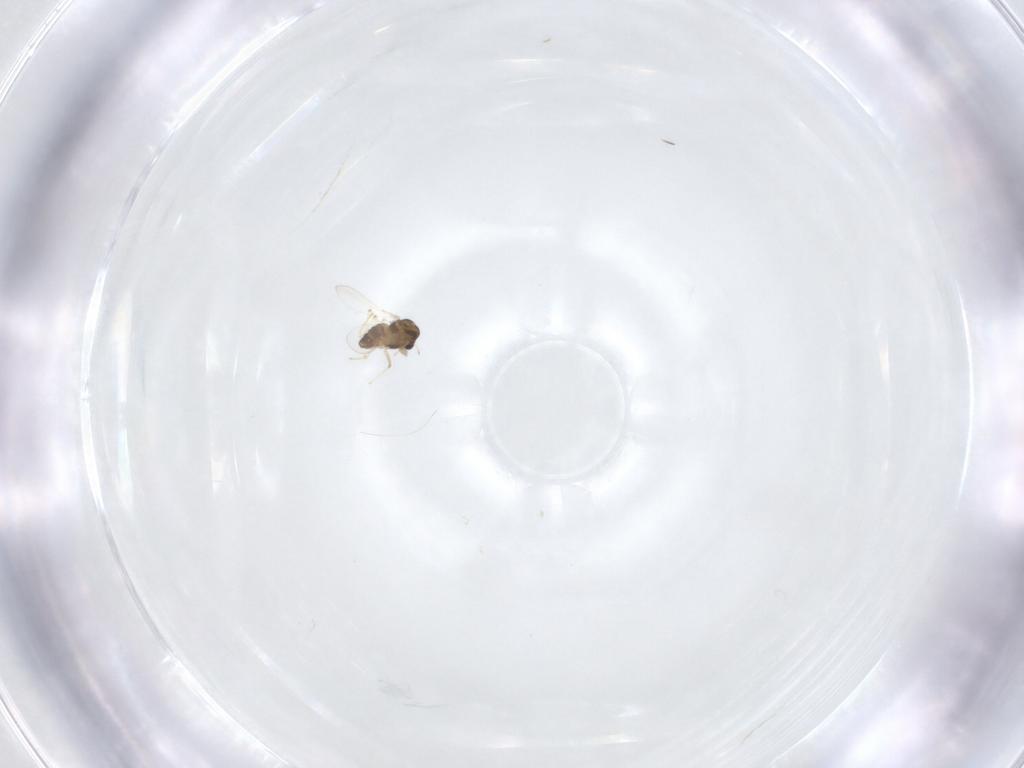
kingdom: Animalia
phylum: Arthropoda
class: Insecta
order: Diptera
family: Chironomidae
